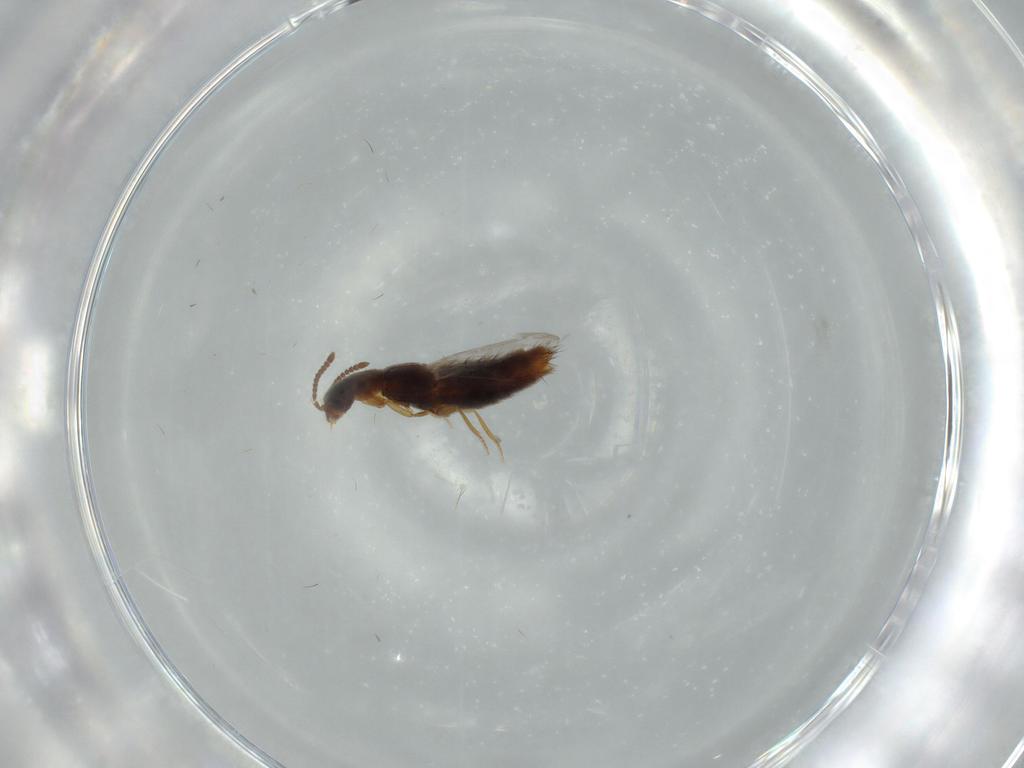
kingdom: Animalia
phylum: Arthropoda
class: Insecta
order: Coleoptera
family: Staphylinidae
